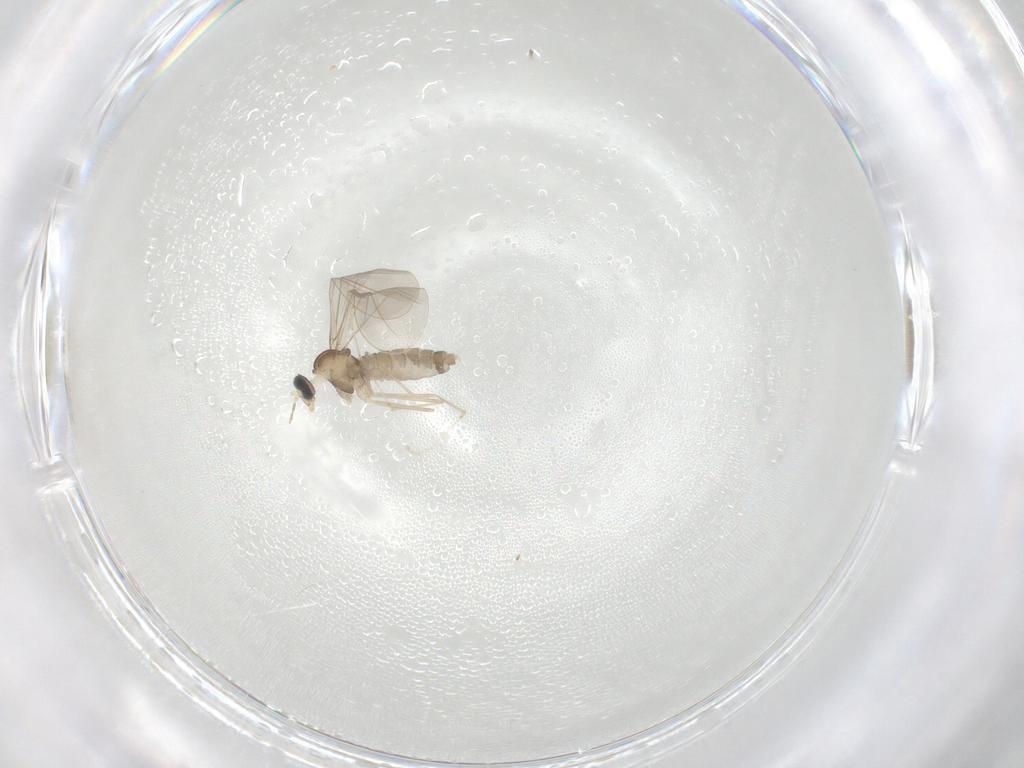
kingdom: Animalia
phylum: Arthropoda
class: Insecta
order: Diptera
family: Cecidomyiidae
